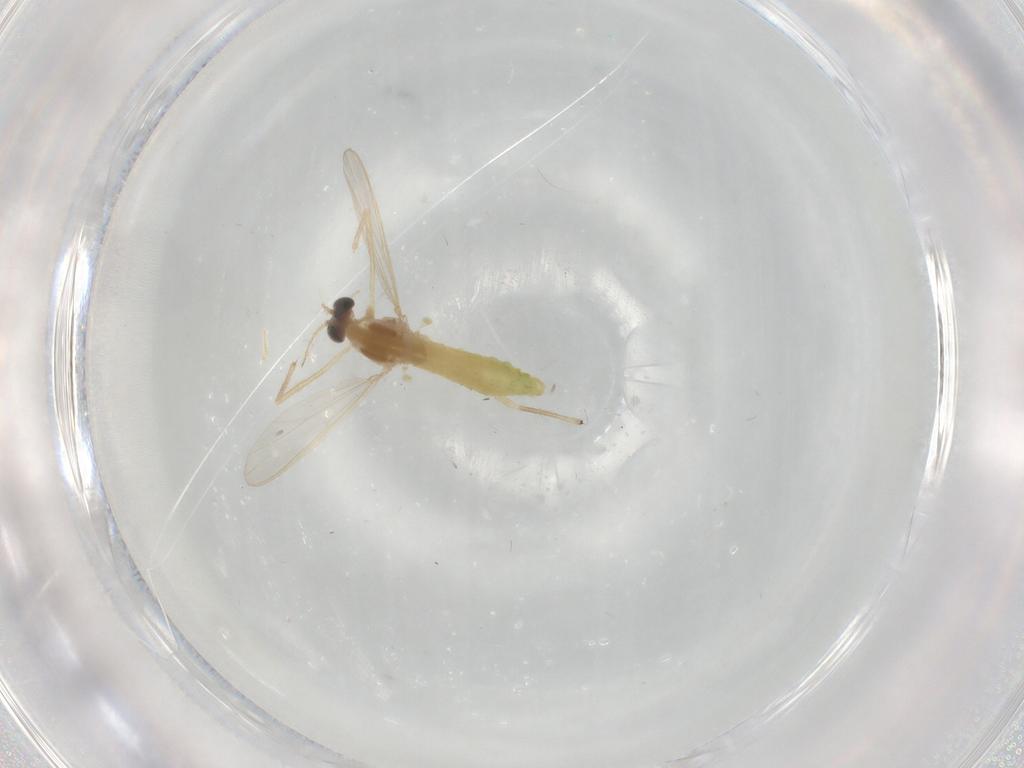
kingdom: Animalia
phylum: Arthropoda
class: Insecta
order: Diptera
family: Chironomidae
